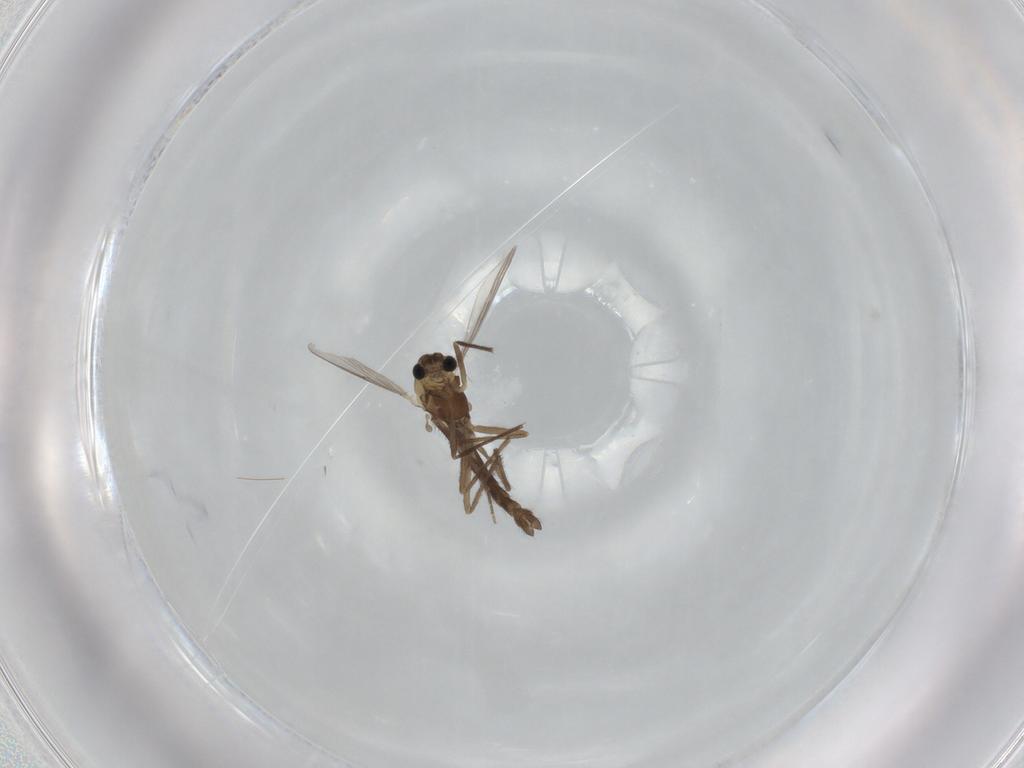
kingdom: Animalia
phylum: Arthropoda
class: Insecta
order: Diptera
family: Chironomidae
